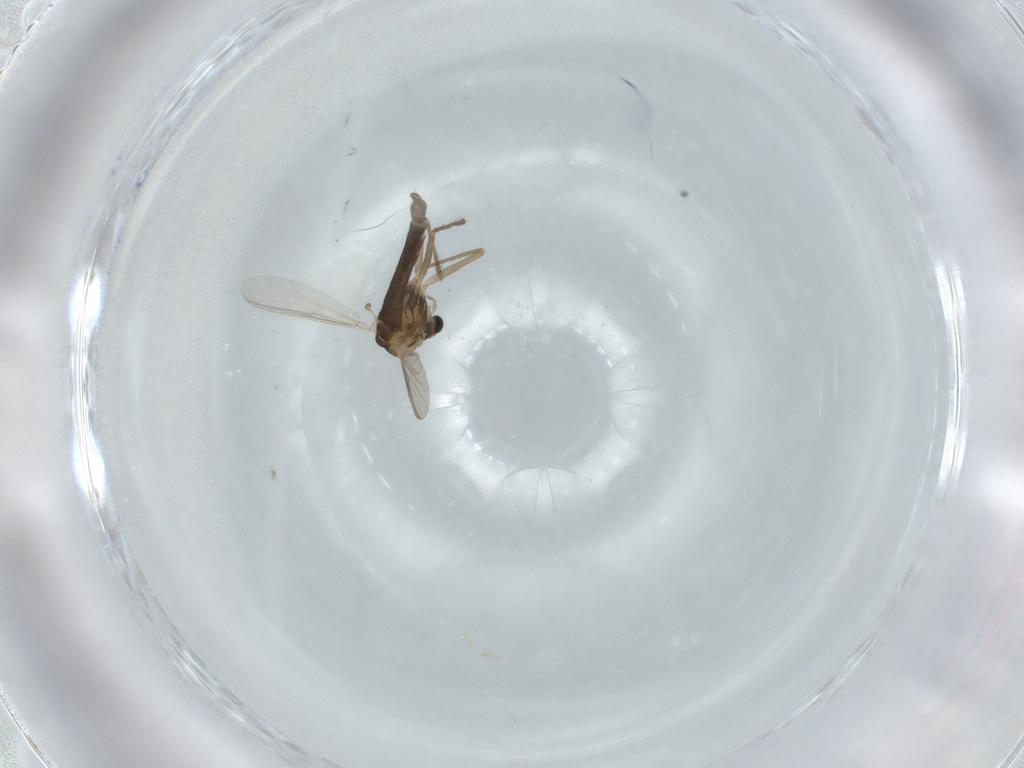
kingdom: Animalia
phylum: Arthropoda
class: Insecta
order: Diptera
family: Chironomidae
